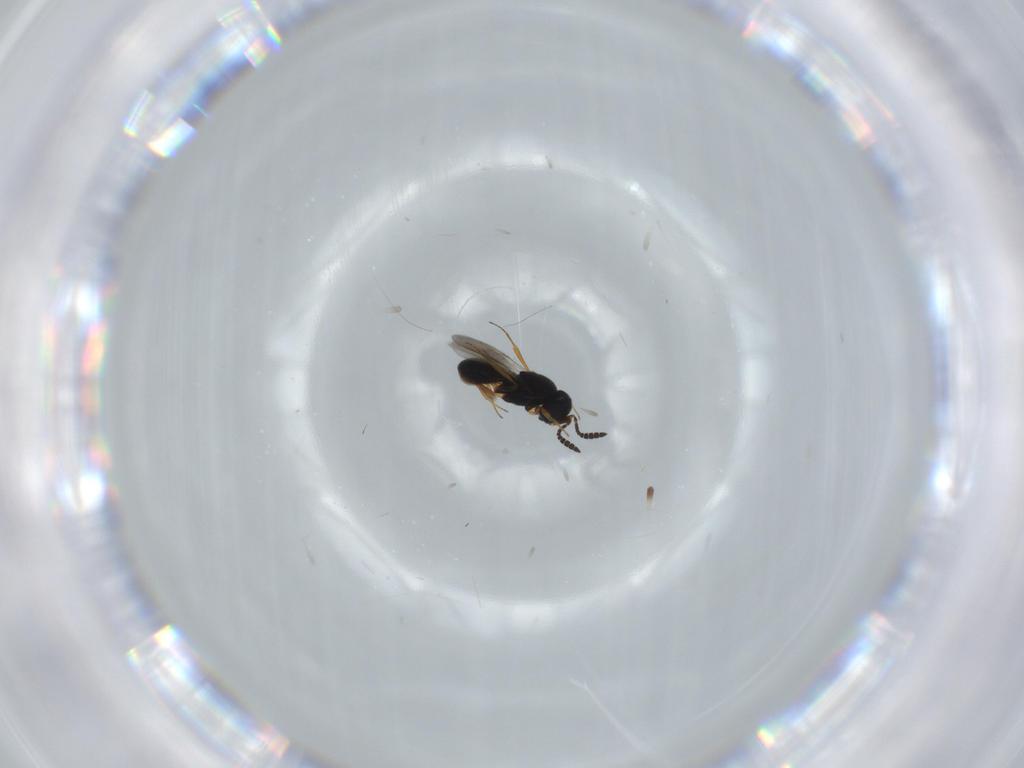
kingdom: Animalia
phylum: Arthropoda
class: Insecta
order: Hymenoptera
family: Scelionidae
